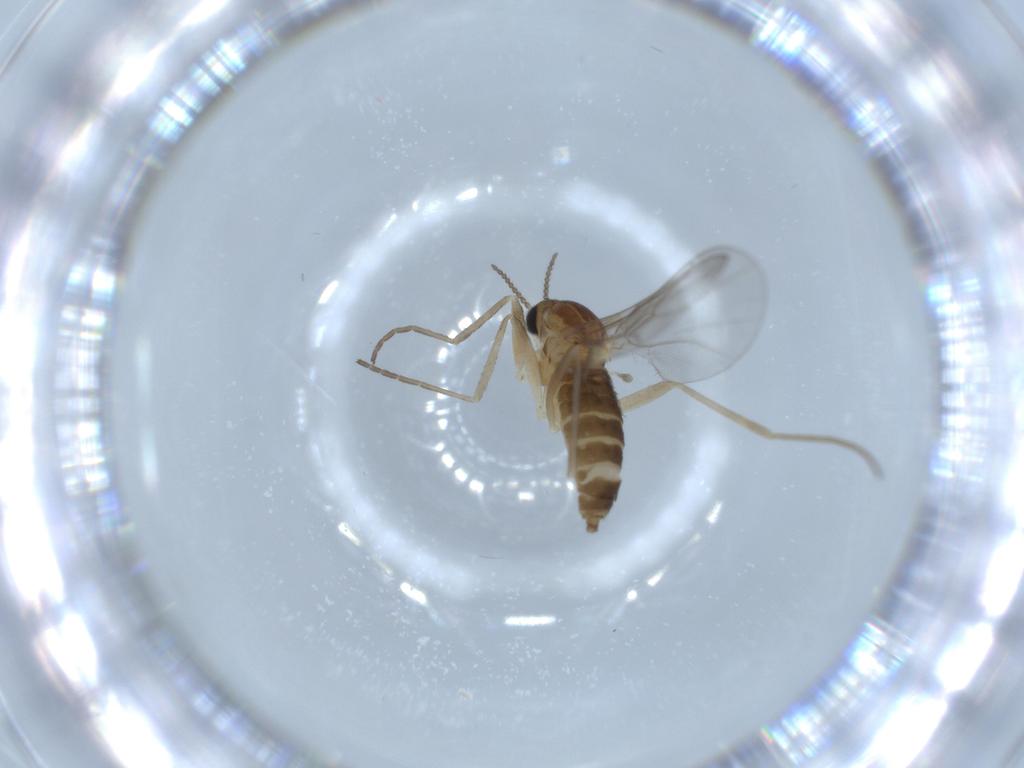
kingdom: Animalia
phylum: Arthropoda
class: Insecta
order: Diptera
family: Cecidomyiidae
